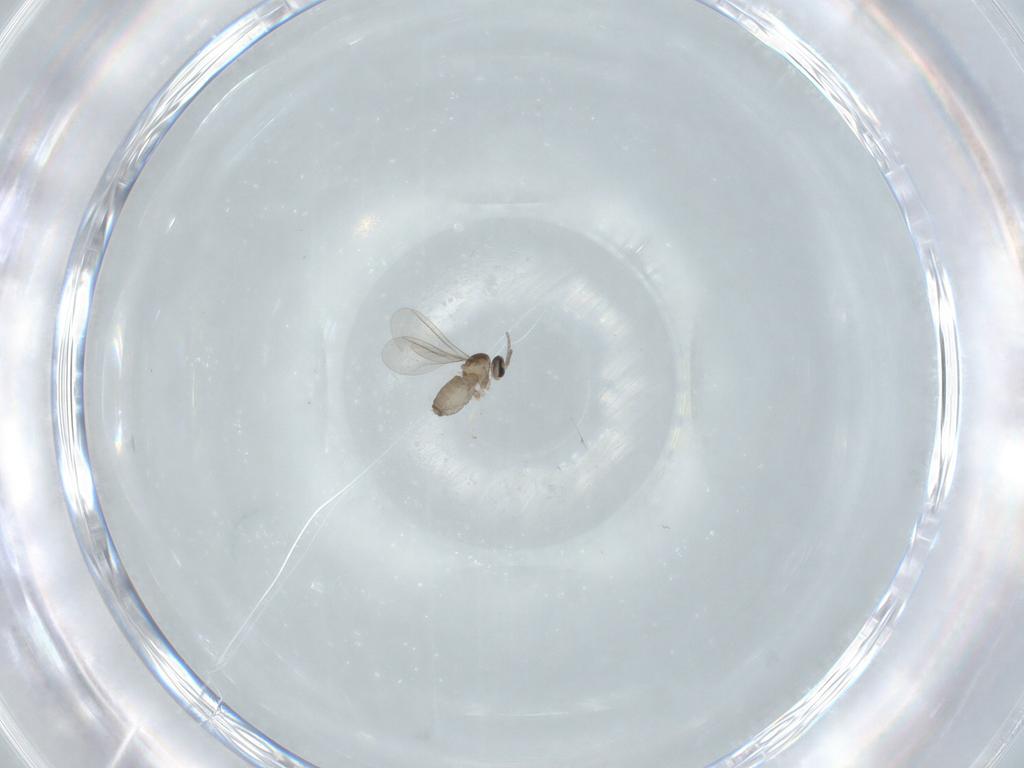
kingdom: Animalia
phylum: Arthropoda
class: Insecta
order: Diptera
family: Cecidomyiidae
